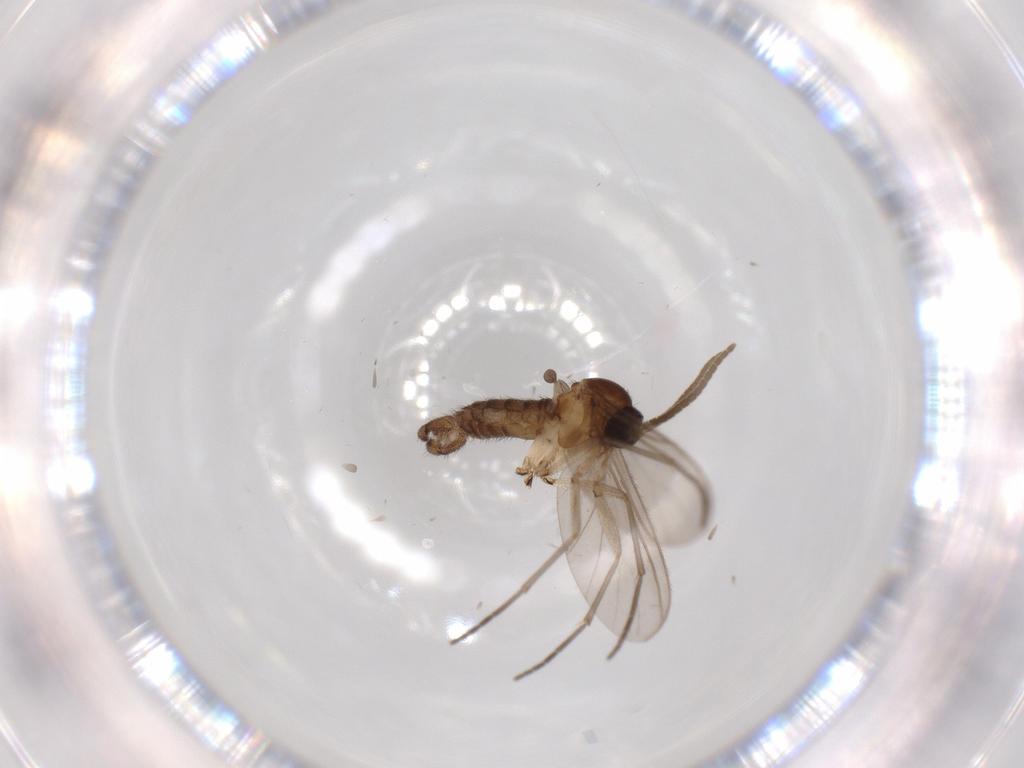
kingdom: Animalia
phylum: Arthropoda
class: Insecta
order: Diptera
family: Sciaridae
